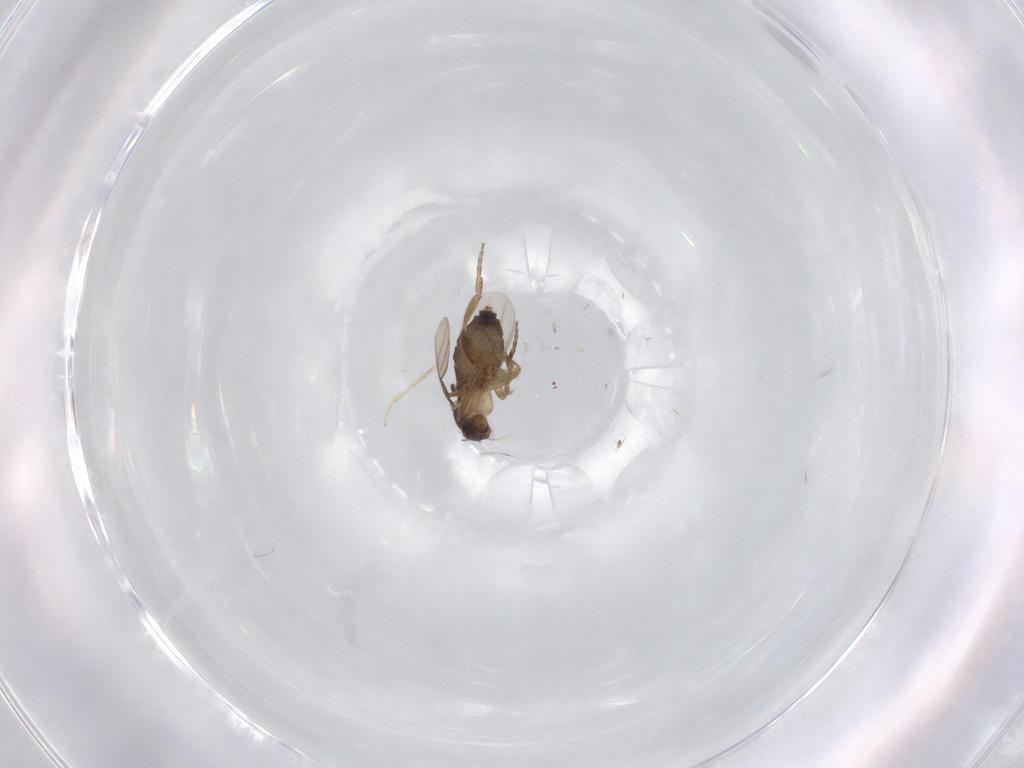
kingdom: Animalia
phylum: Arthropoda
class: Insecta
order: Diptera
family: Phoridae
